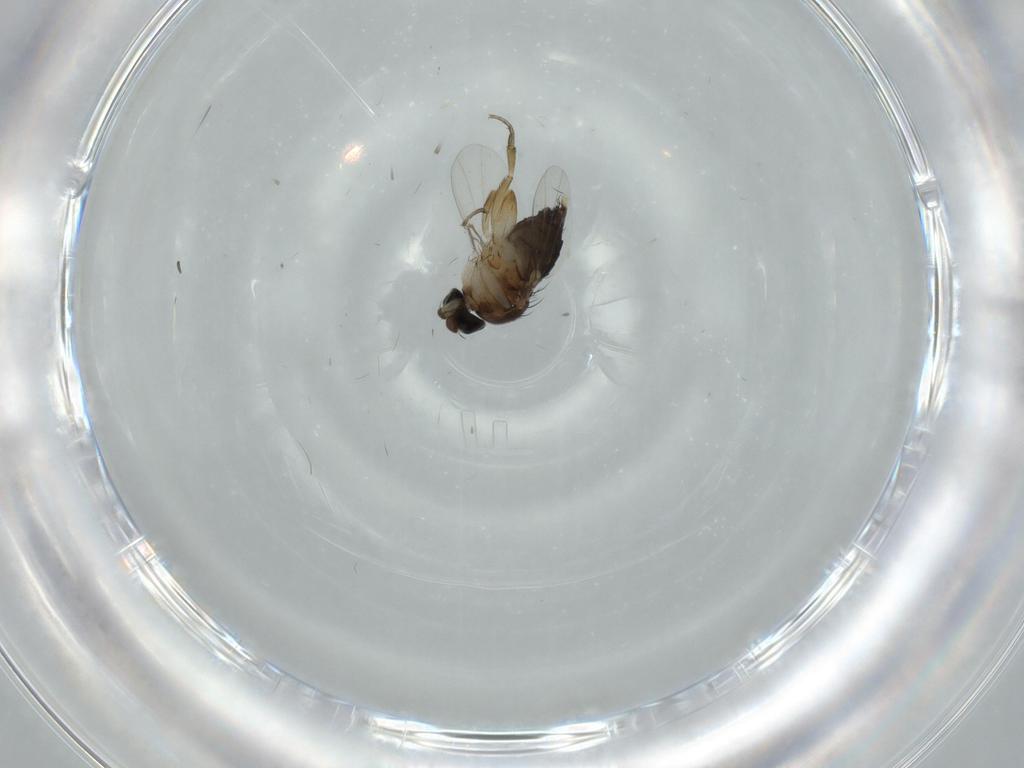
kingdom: Animalia
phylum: Arthropoda
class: Insecta
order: Diptera
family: Phoridae
